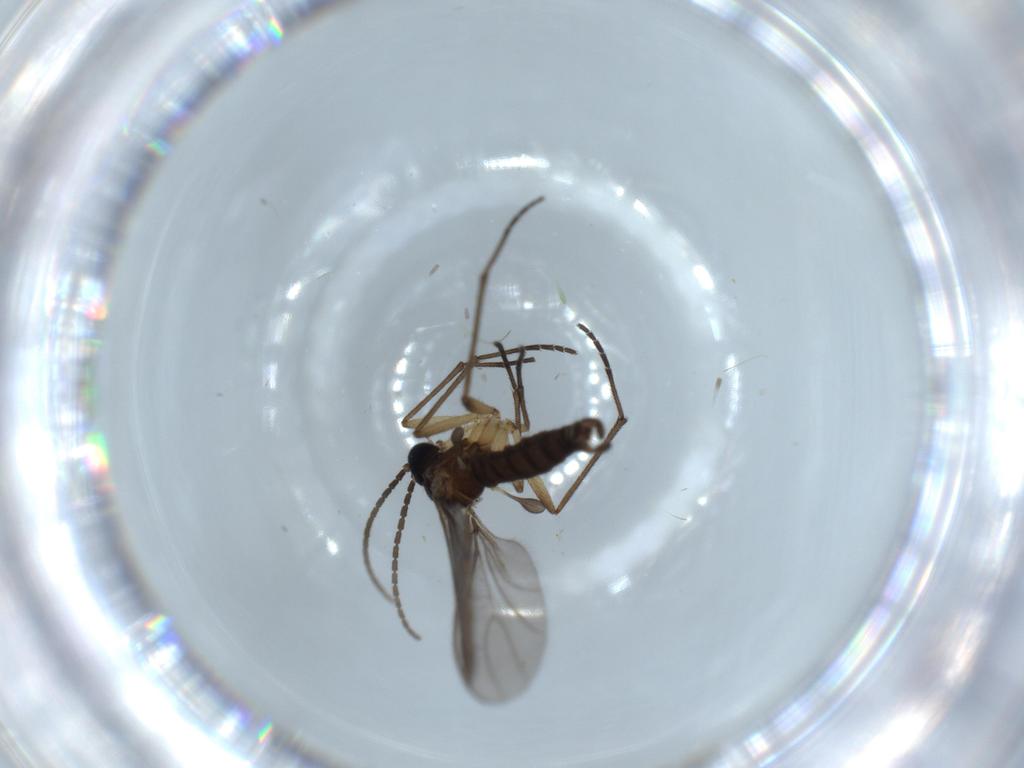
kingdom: Animalia
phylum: Arthropoda
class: Insecta
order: Diptera
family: Sciaridae
